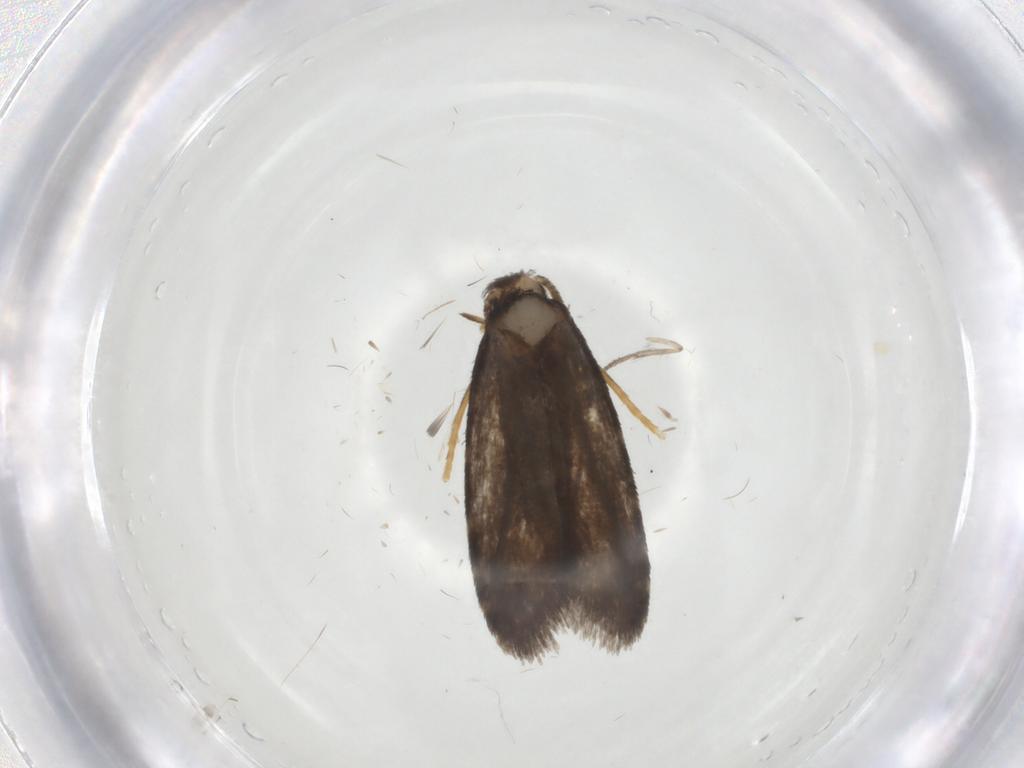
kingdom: Animalia
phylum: Arthropoda
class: Insecta
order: Lepidoptera
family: Psychidae
